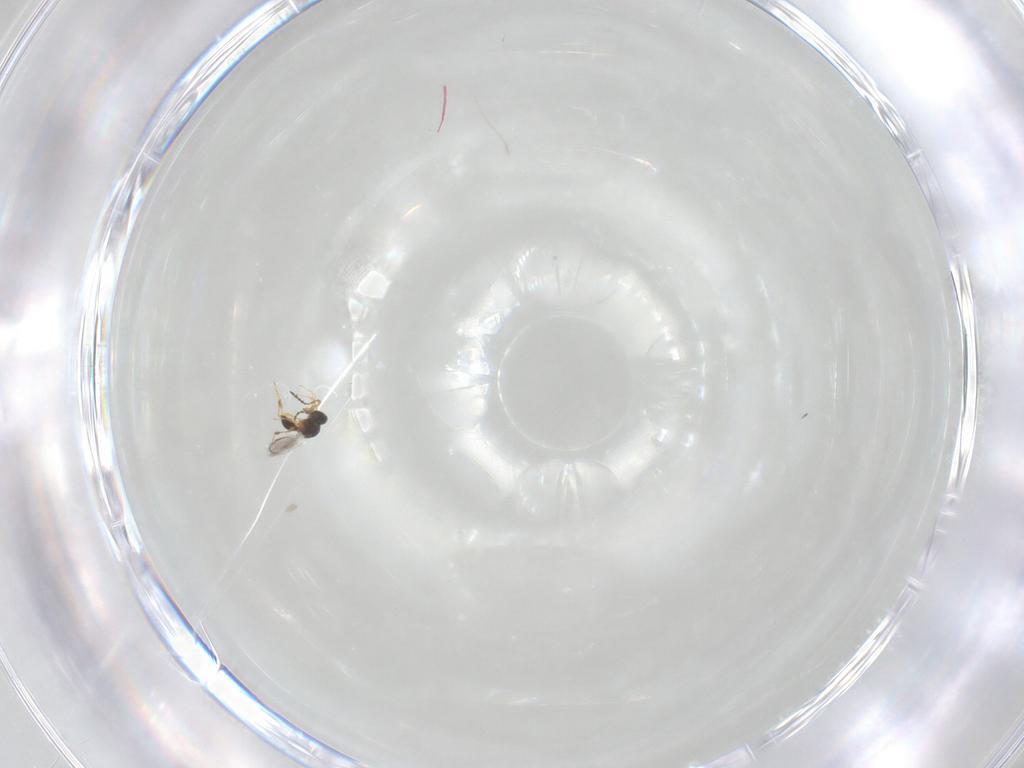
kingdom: Animalia
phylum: Arthropoda
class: Insecta
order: Hymenoptera
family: Platygastridae
